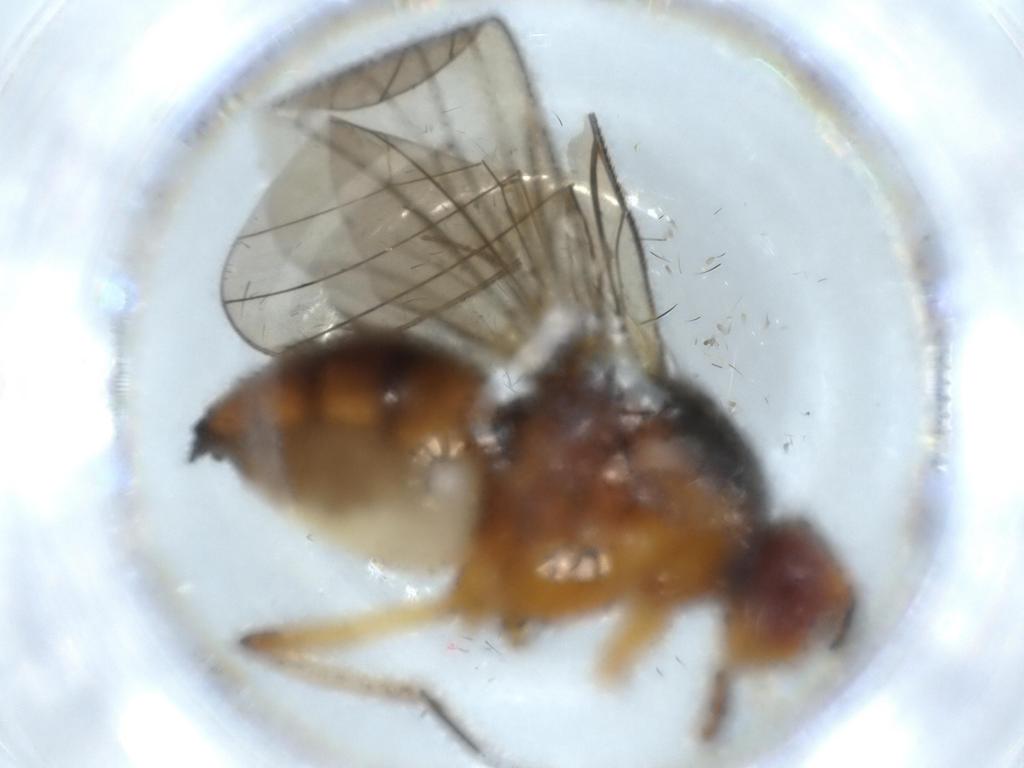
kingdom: Animalia
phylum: Arthropoda
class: Insecta
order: Diptera
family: Anthomyiidae
